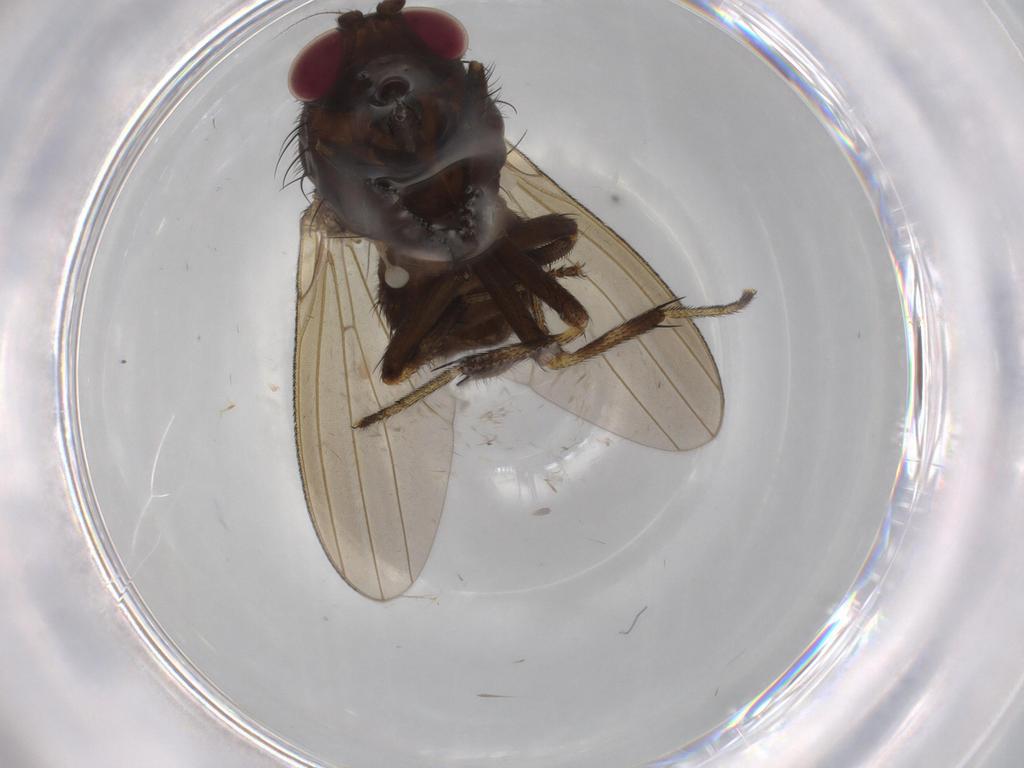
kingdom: Animalia
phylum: Arthropoda
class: Insecta
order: Diptera
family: Lauxaniidae
